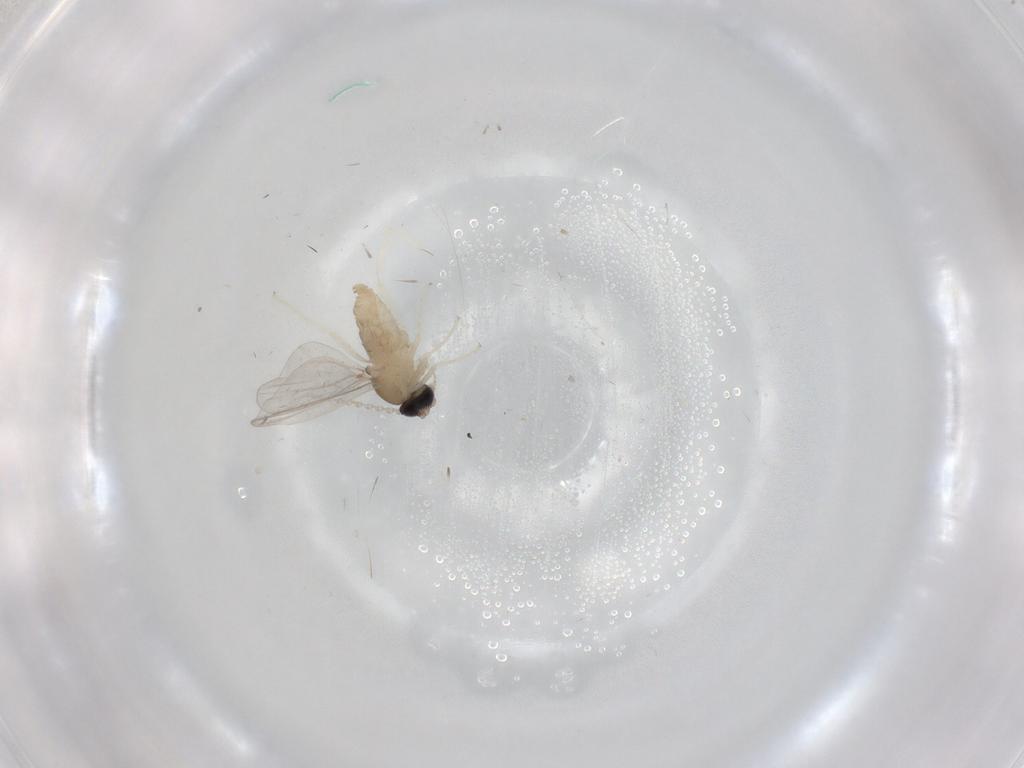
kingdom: Animalia
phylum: Arthropoda
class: Insecta
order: Diptera
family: Cecidomyiidae
